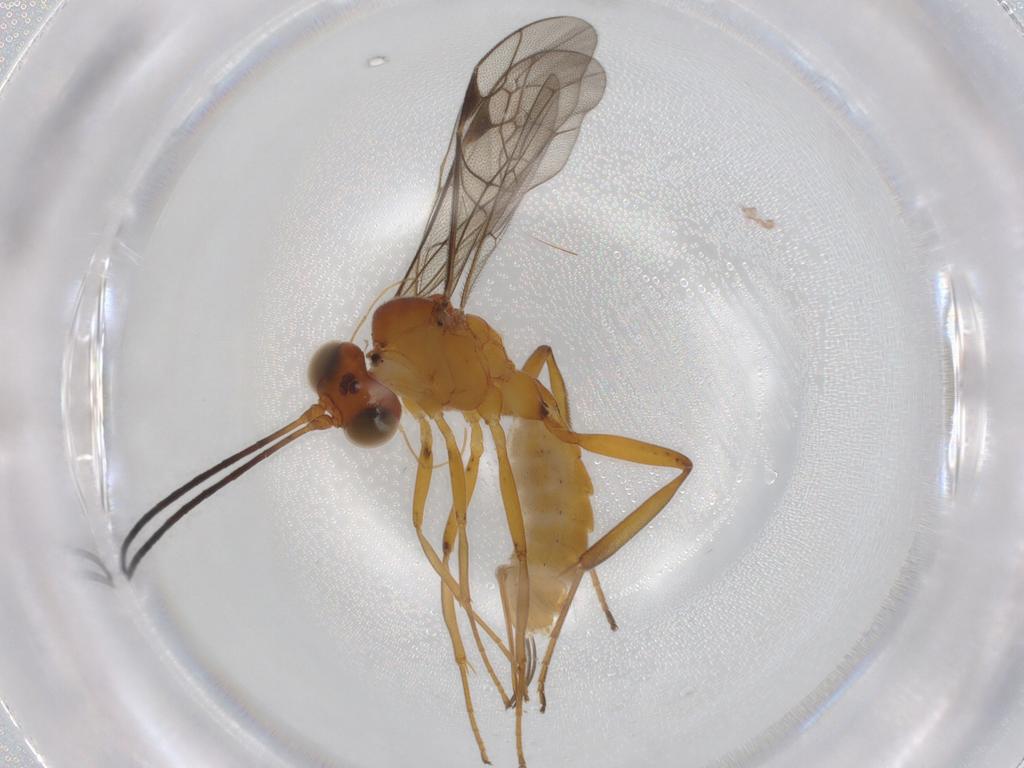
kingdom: Animalia
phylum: Arthropoda
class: Insecta
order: Hymenoptera
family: Ichneumonidae
